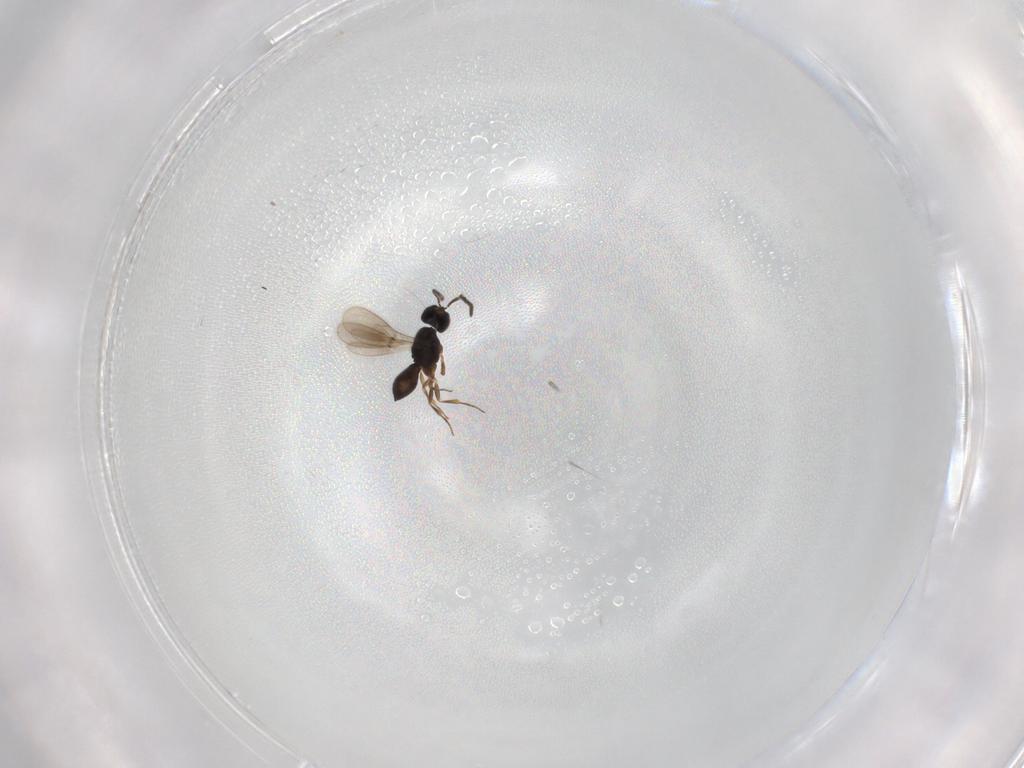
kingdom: Animalia
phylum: Arthropoda
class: Insecta
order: Hymenoptera
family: Scelionidae
